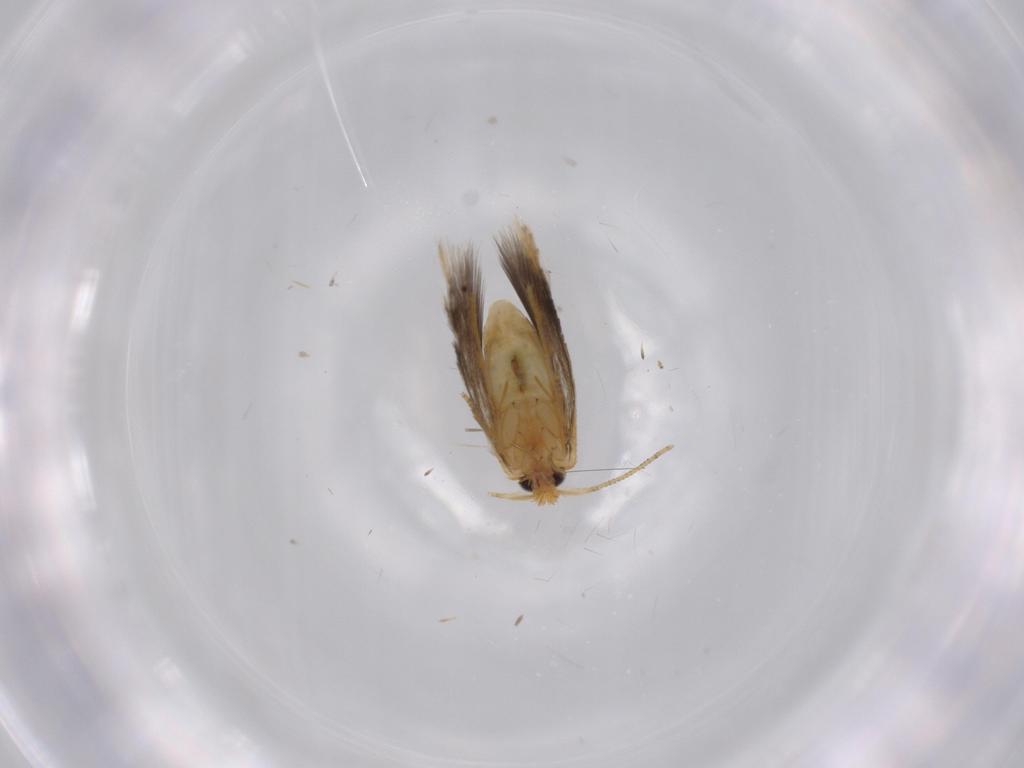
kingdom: Animalia
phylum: Arthropoda
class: Insecta
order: Lepidoptera
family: Nepticulidae
